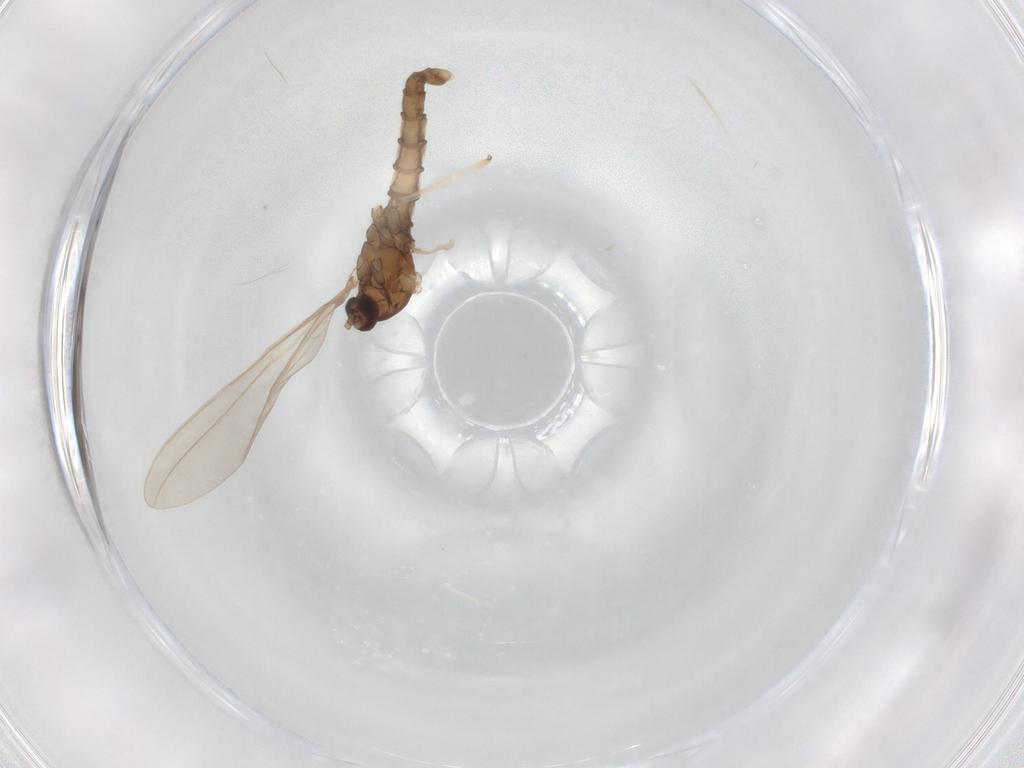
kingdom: Animalia
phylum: Arthropoda
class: Insecta
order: Diptera
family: Cecidomyiidae
